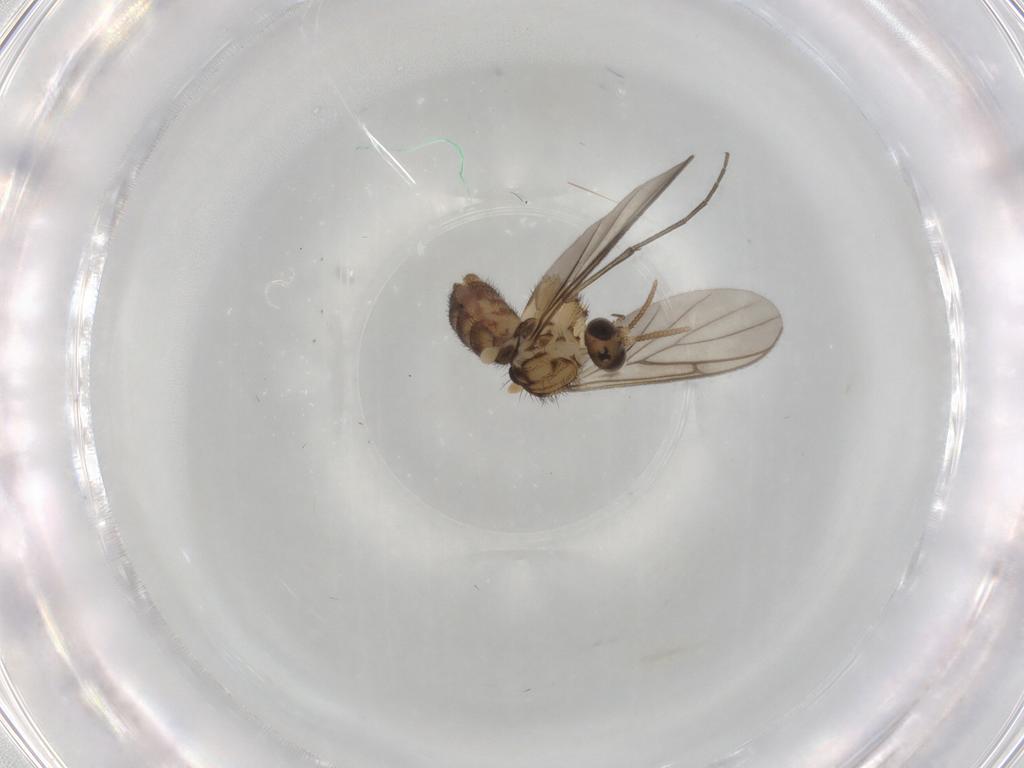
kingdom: Animalia
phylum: Arthropoda
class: Insecta
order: Diptera
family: Keroplatidae
